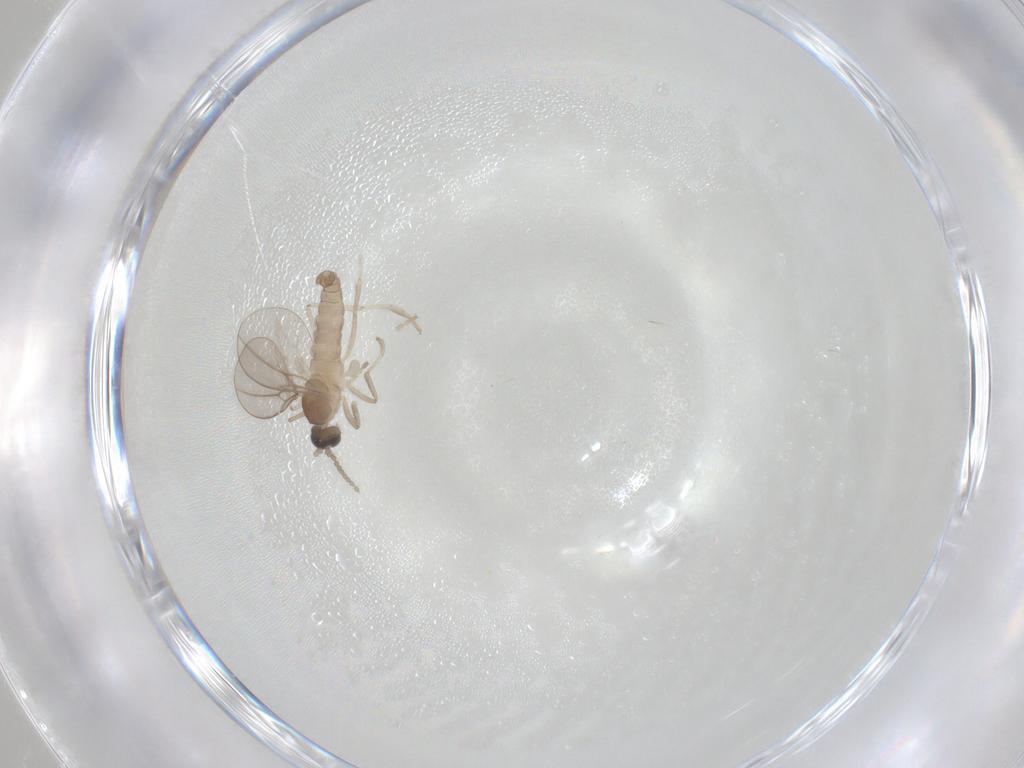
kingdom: Animalia
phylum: Arthropoda
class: Insecta
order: Diptera
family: Cecidomyiidae
